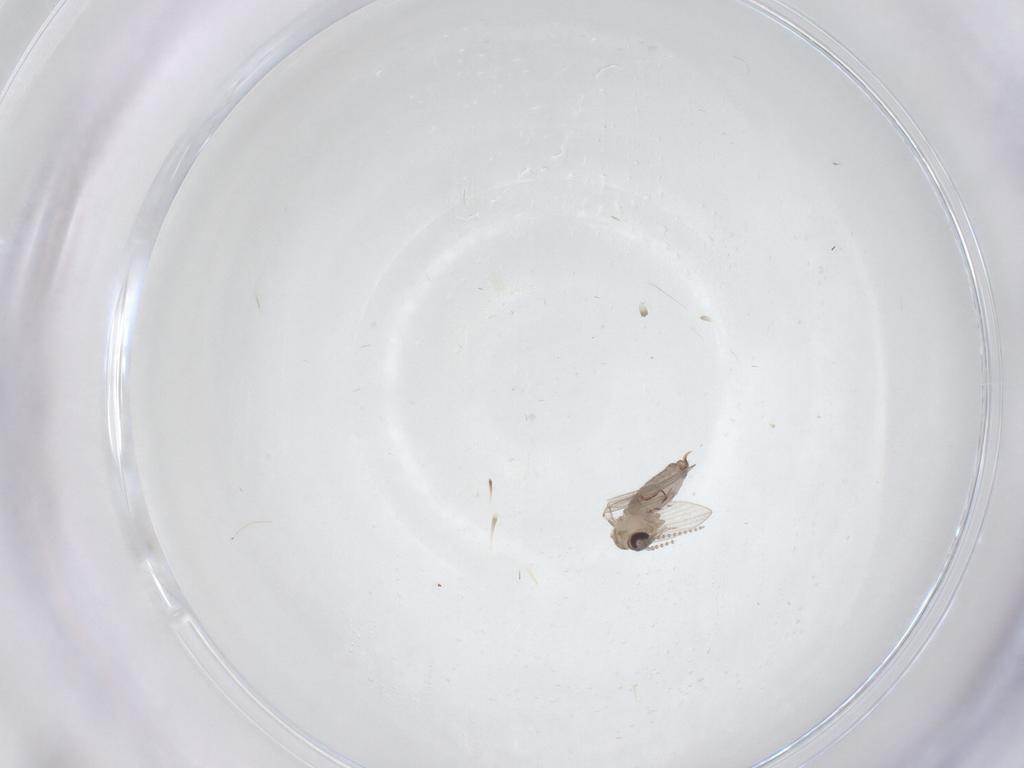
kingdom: Animalia
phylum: Arthropoda
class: Insecta
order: Diptera
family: Psychodidae
